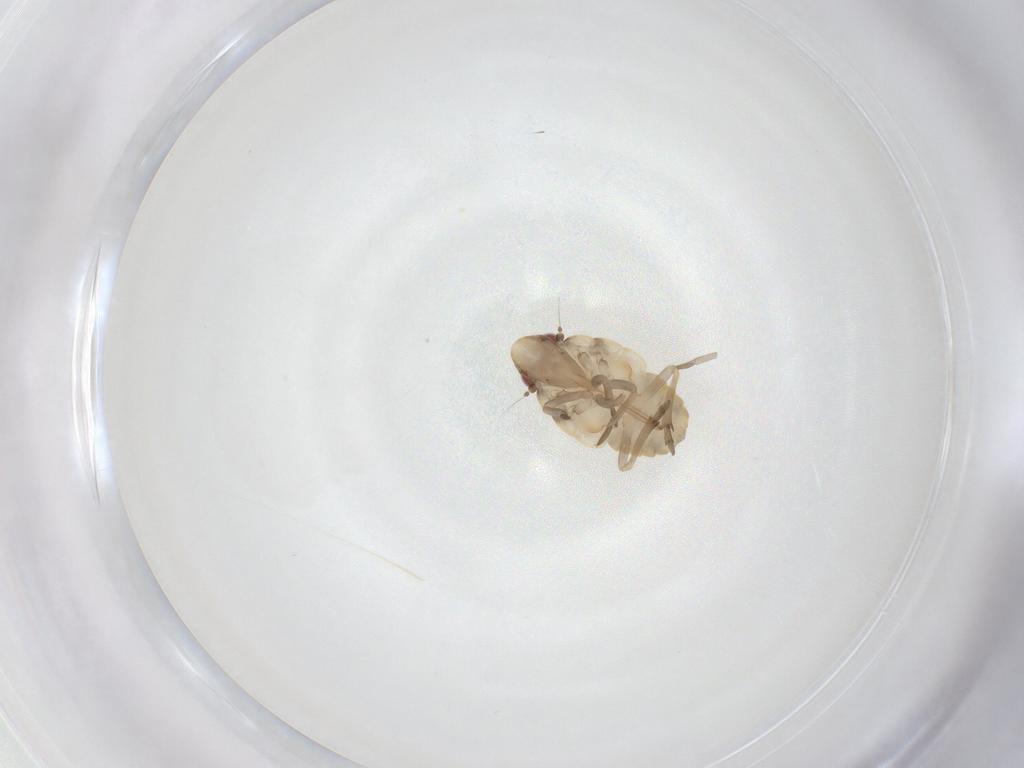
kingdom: Animalia
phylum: Arthropoda
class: Insecta
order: Hemiptera
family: Flatidae
